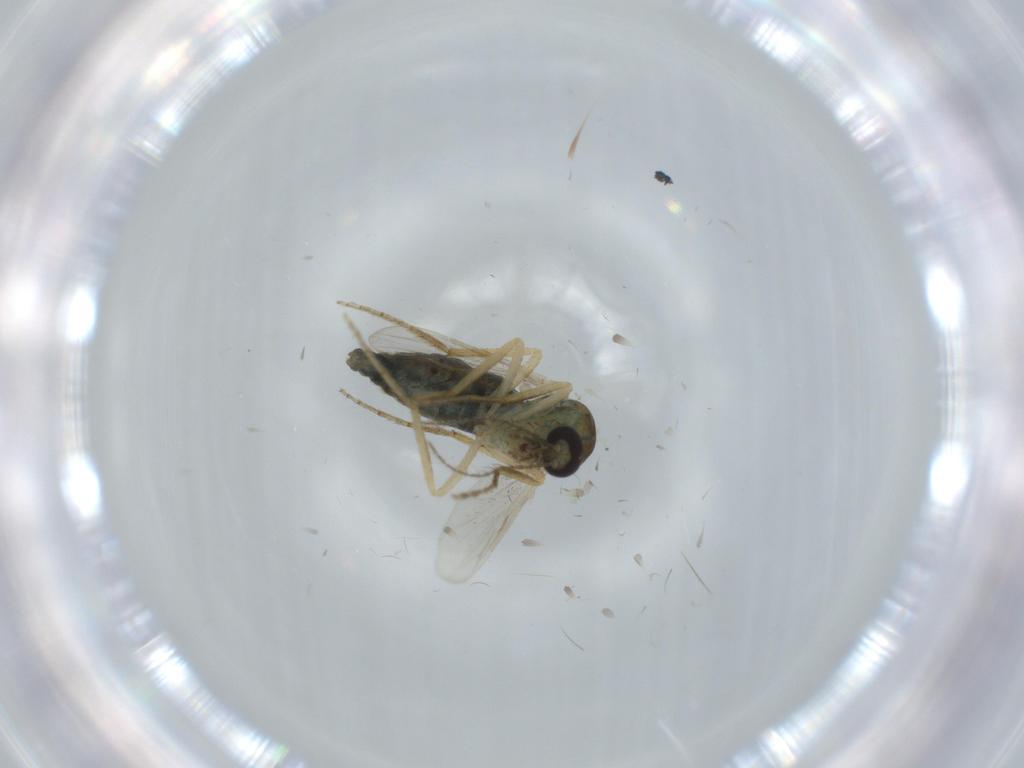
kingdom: Animalia
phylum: Arthropoda
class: Insecta
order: Diptera
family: Ceratopogonidae
